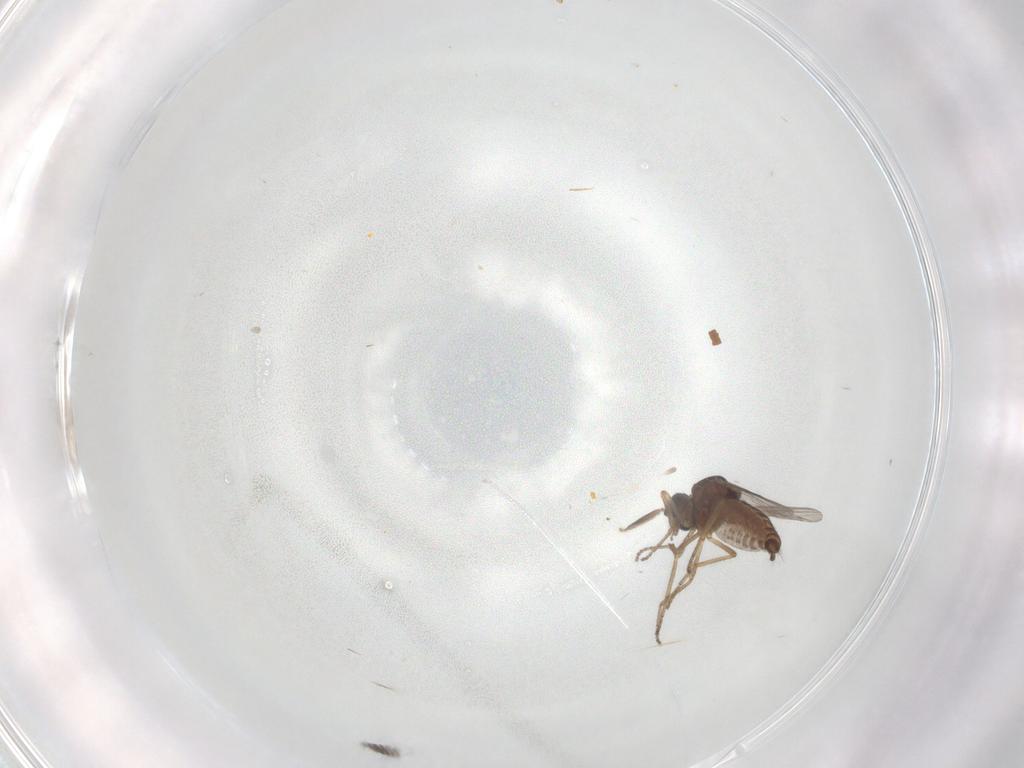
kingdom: Animalia
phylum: Arthropoda
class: Insecta
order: Diptera
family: Ceratopogonidae
